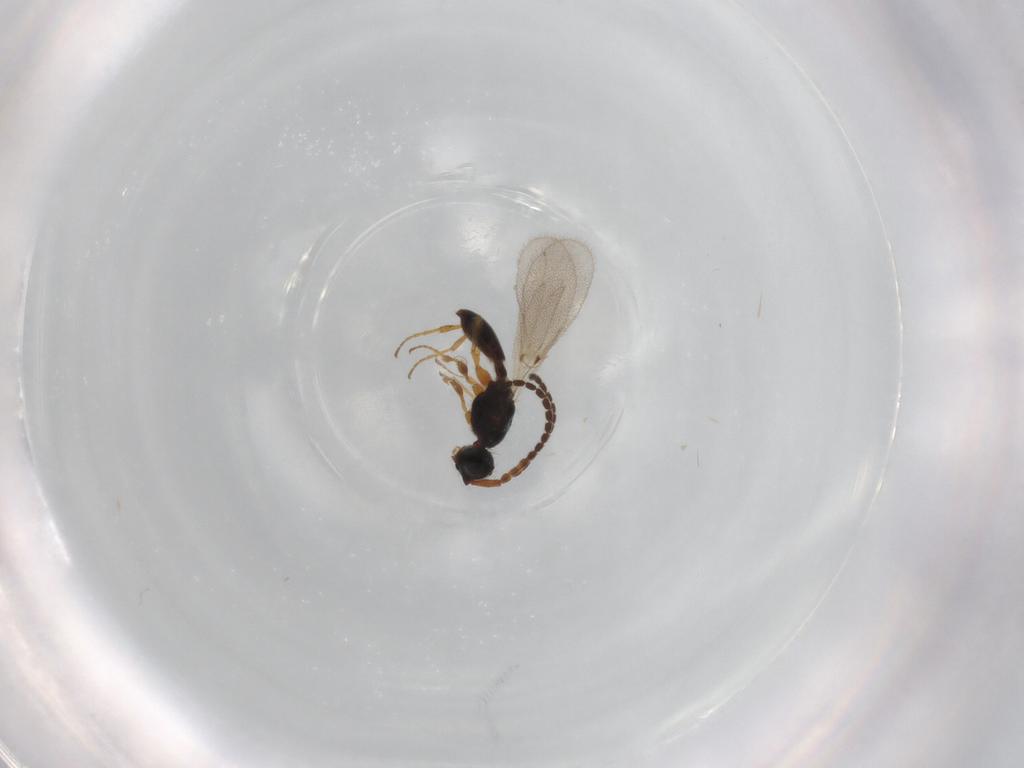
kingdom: Animalia
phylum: Arthropoda
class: Insecta
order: Hymenoptera
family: Diapriidae
